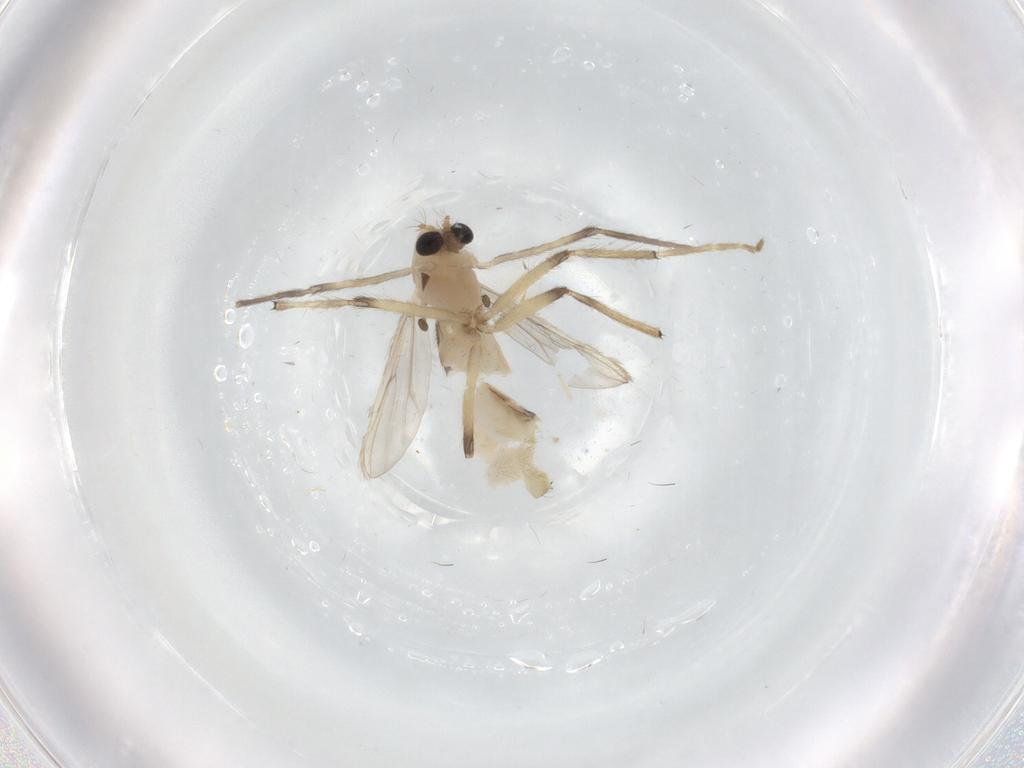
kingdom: Animalia
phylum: Arthropoda
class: Insecta
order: Diptera
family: Chironomidae
